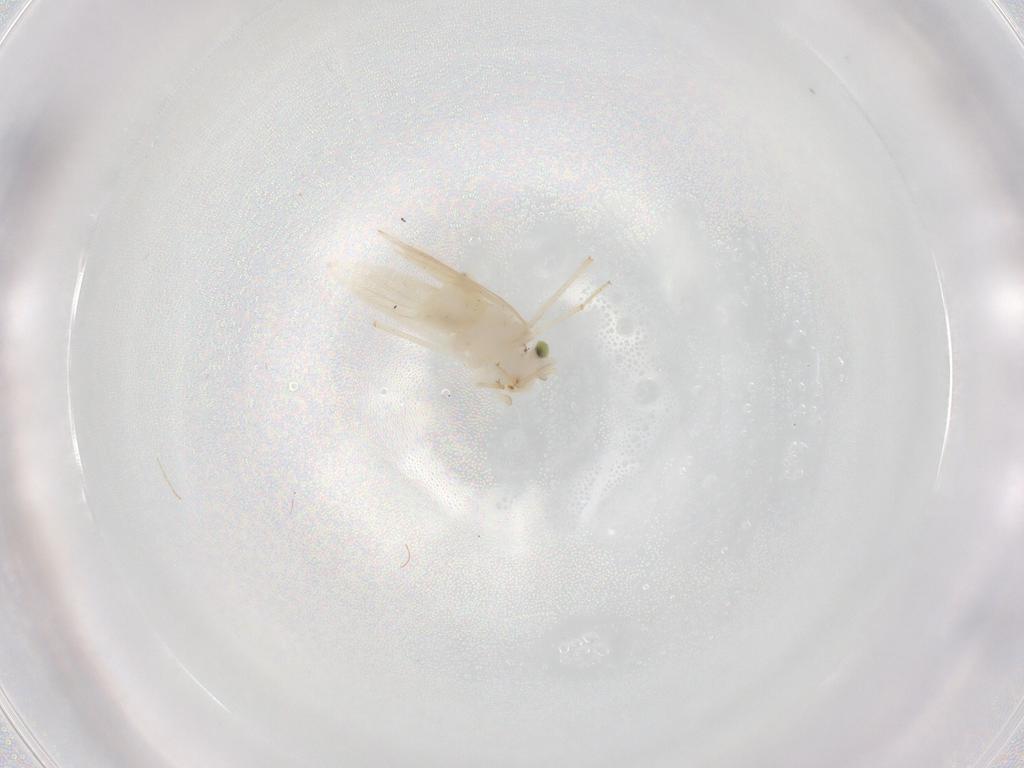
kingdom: Animalia
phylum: Arthropoda
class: Insecta
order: Psocodea
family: Lepidopsocidae
